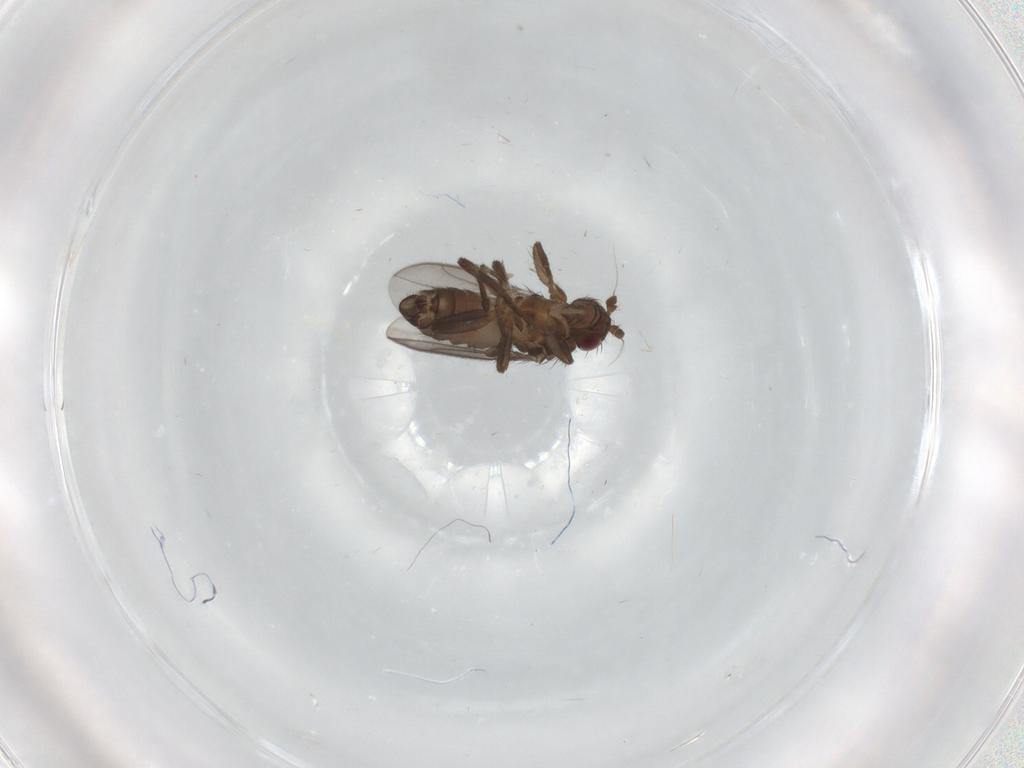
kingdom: Animalia
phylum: Arthropoda
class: Insecta
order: Diptera
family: Sphaeroceridae
